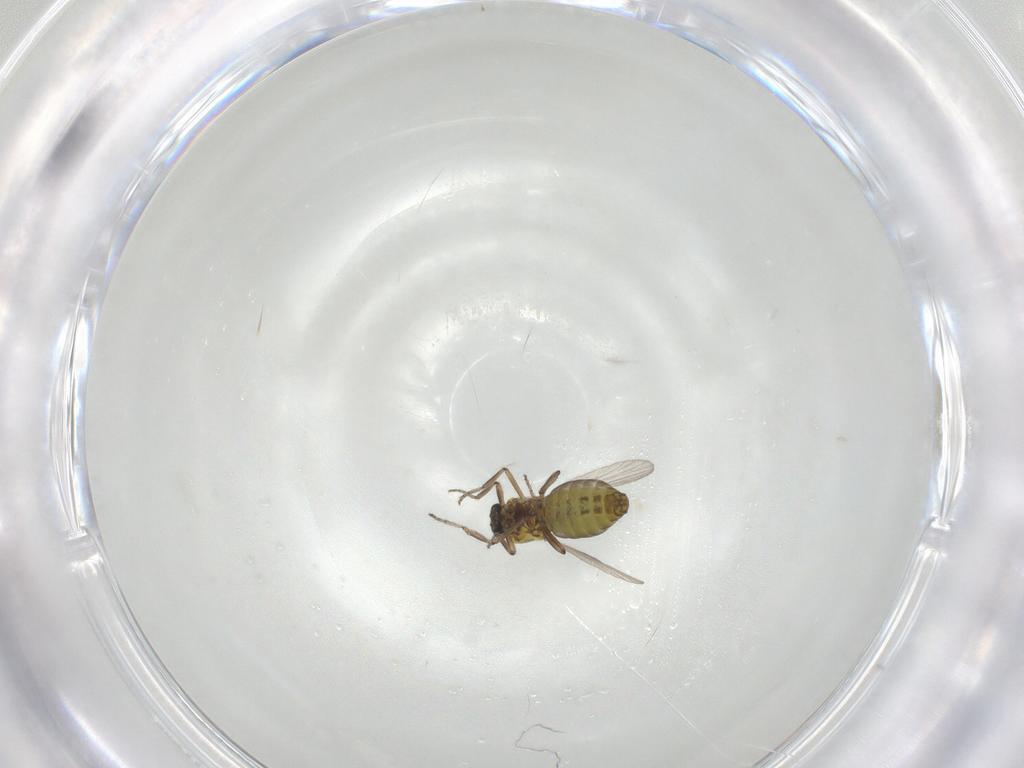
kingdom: Animalia
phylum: Arthropoda
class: Insecta
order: Diptera
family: Ceratopogonidae
